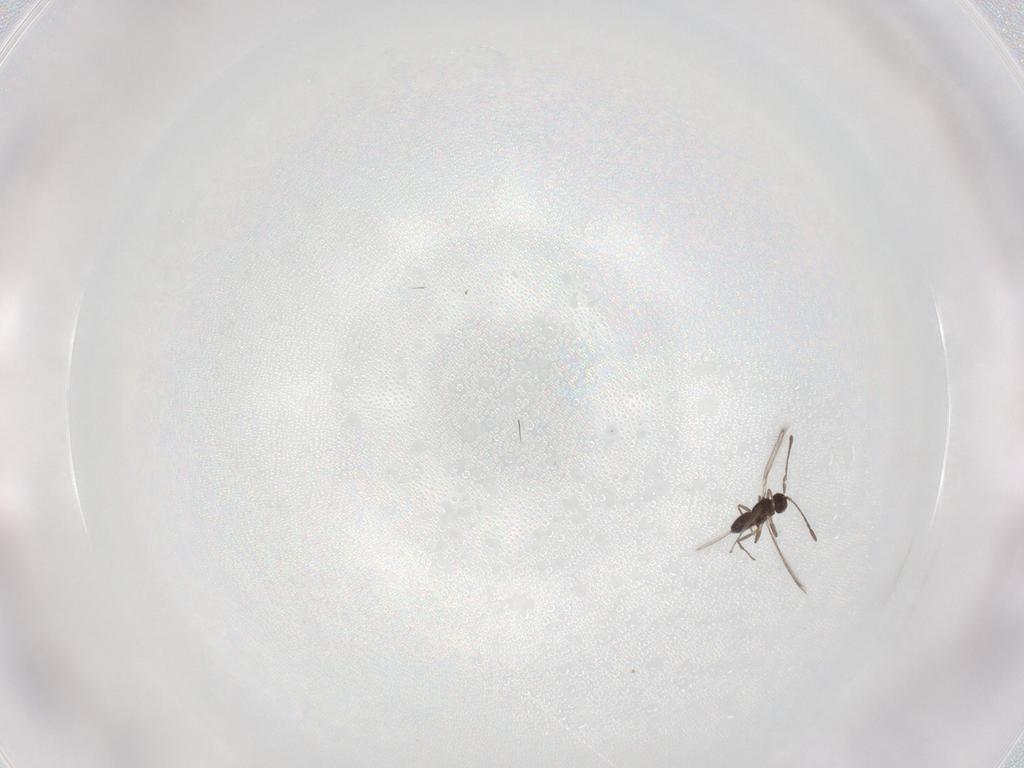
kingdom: Animalia
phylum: Arthropoda
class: Insecta
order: Hymenoptera
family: Mymaridae
